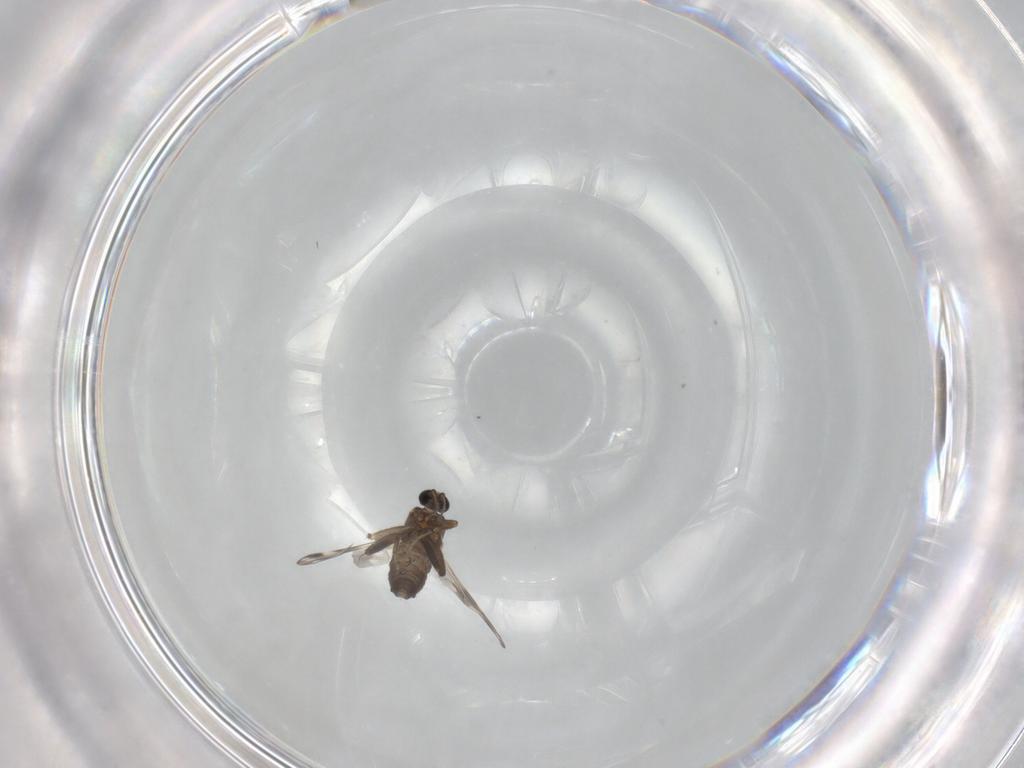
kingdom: Animalia
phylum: Arthropoda
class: Insecta
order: Diptera
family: Ceratopogonidae
